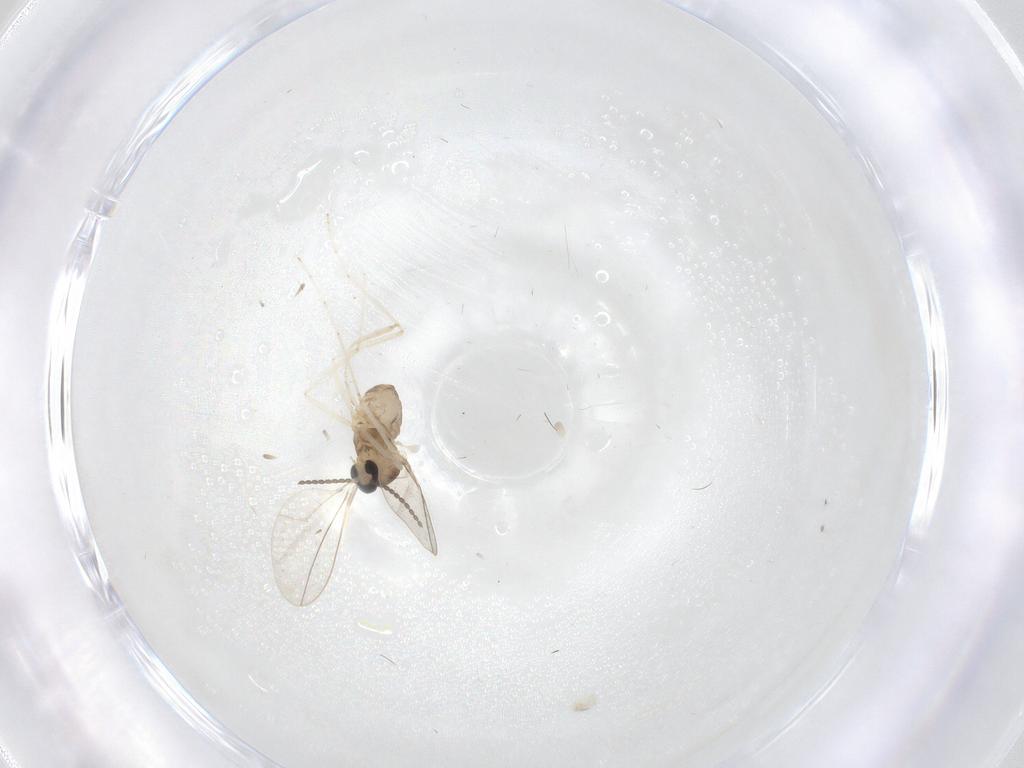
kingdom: Animalia
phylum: Arthropoda
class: Insecta
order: Diptera
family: Cecidomyiidae
